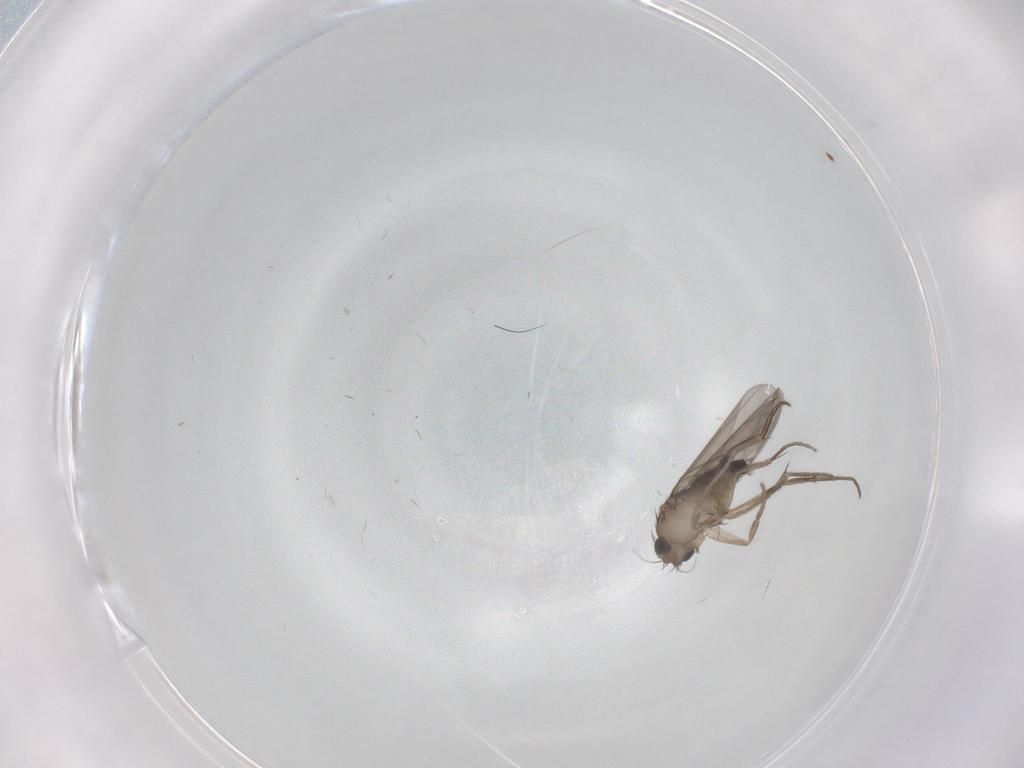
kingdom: Animalia
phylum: Arthropoda
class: Insecta
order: Diptera
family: Phoridae
